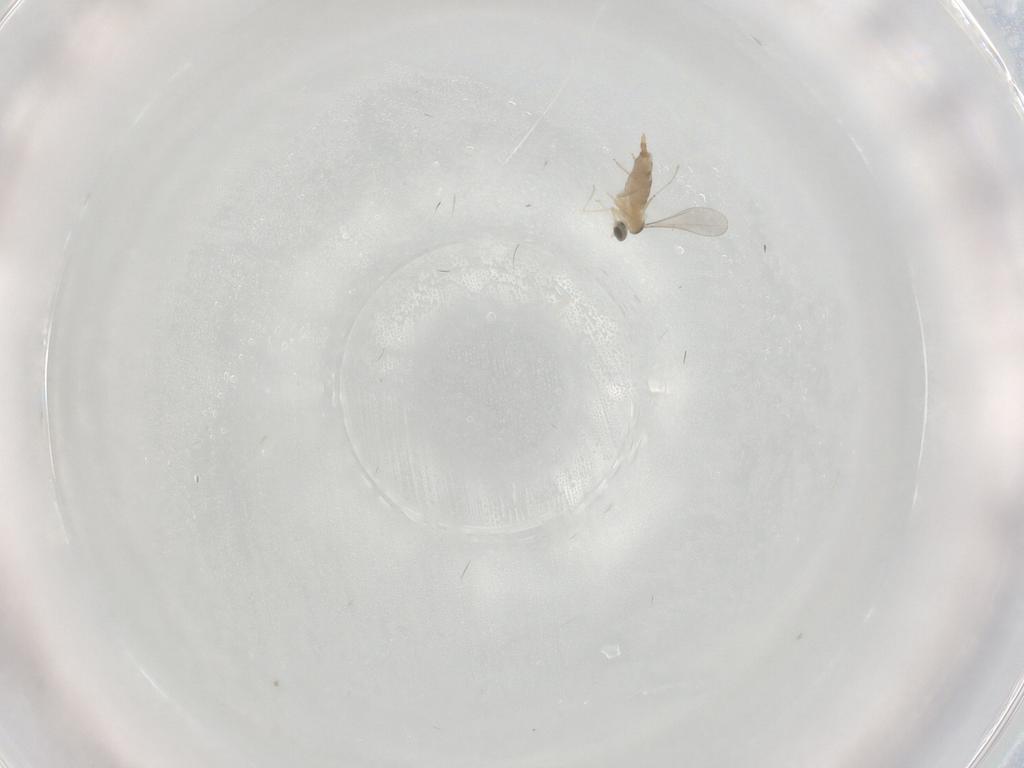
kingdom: Animalia
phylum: Arthropoda
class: Insecta
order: Diptera
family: Cecidomyiidae
